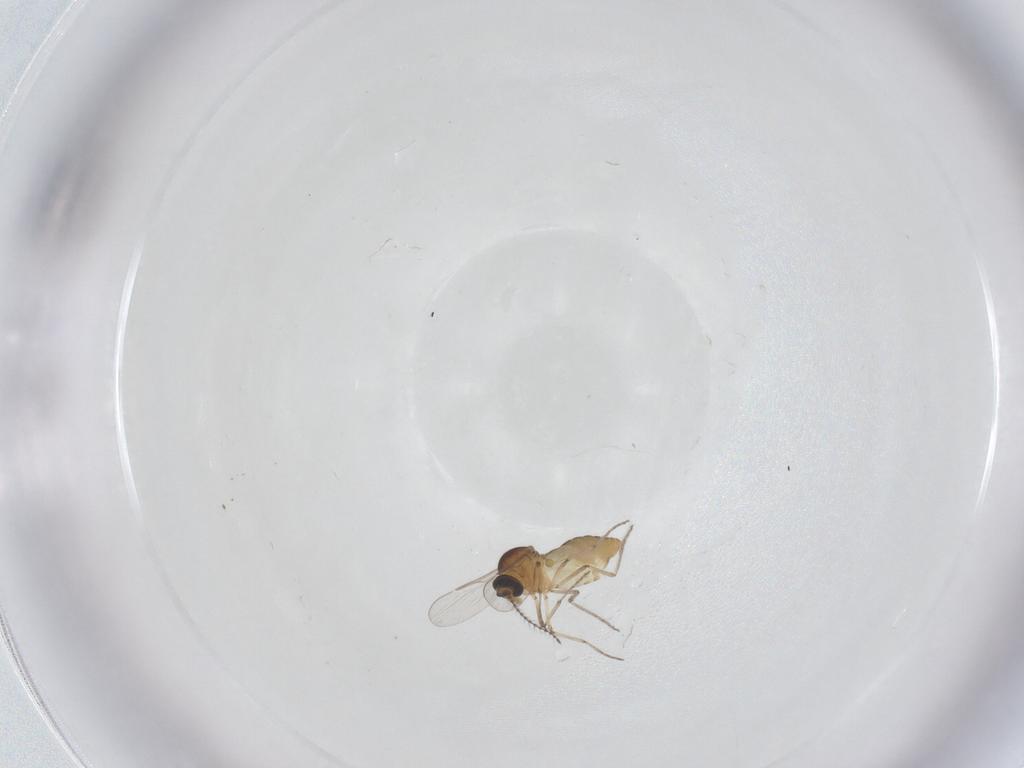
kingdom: Animalia
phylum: Arthropoda
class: Insecta
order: Diptera
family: Ceratopogonidae
